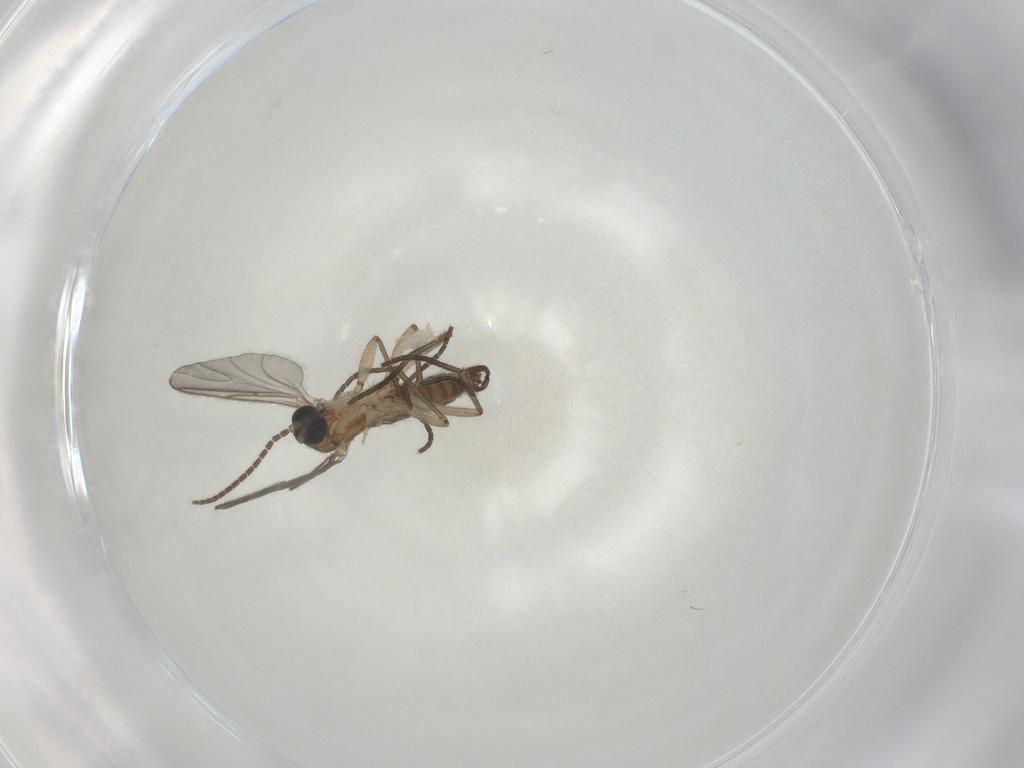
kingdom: Animalia
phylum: Arthropoda
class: Insecta
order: Diptera
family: Sciaridae
